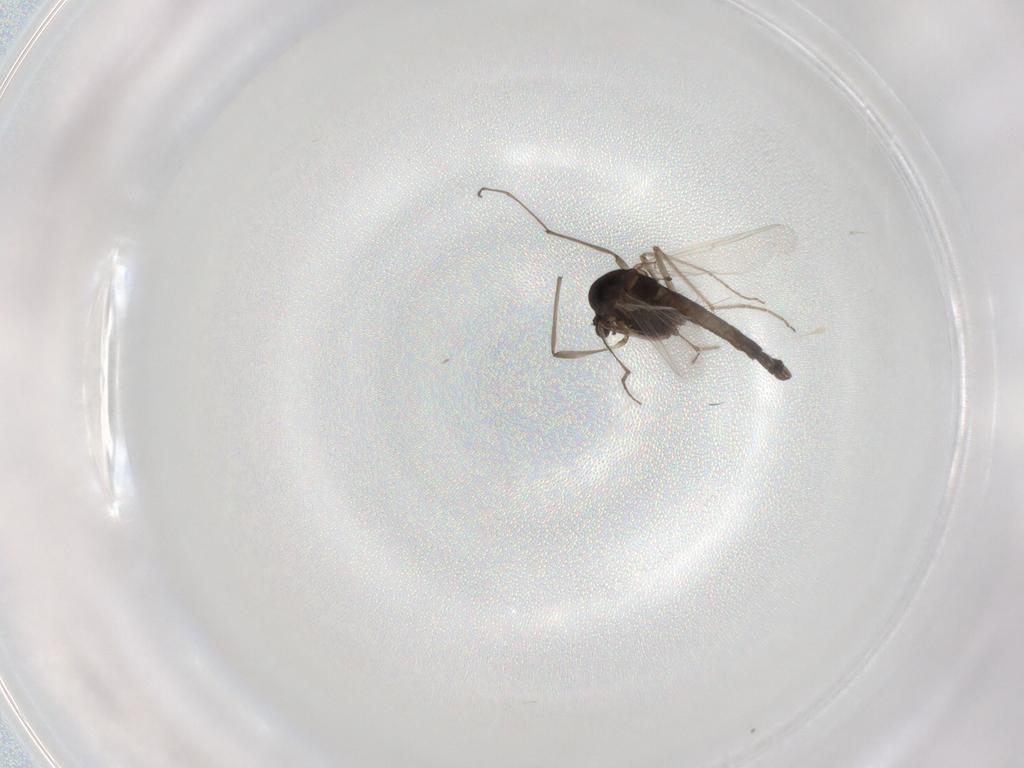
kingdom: Animalia
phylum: Arthropoda
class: Insecta
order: Diptera
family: Chironomidae
